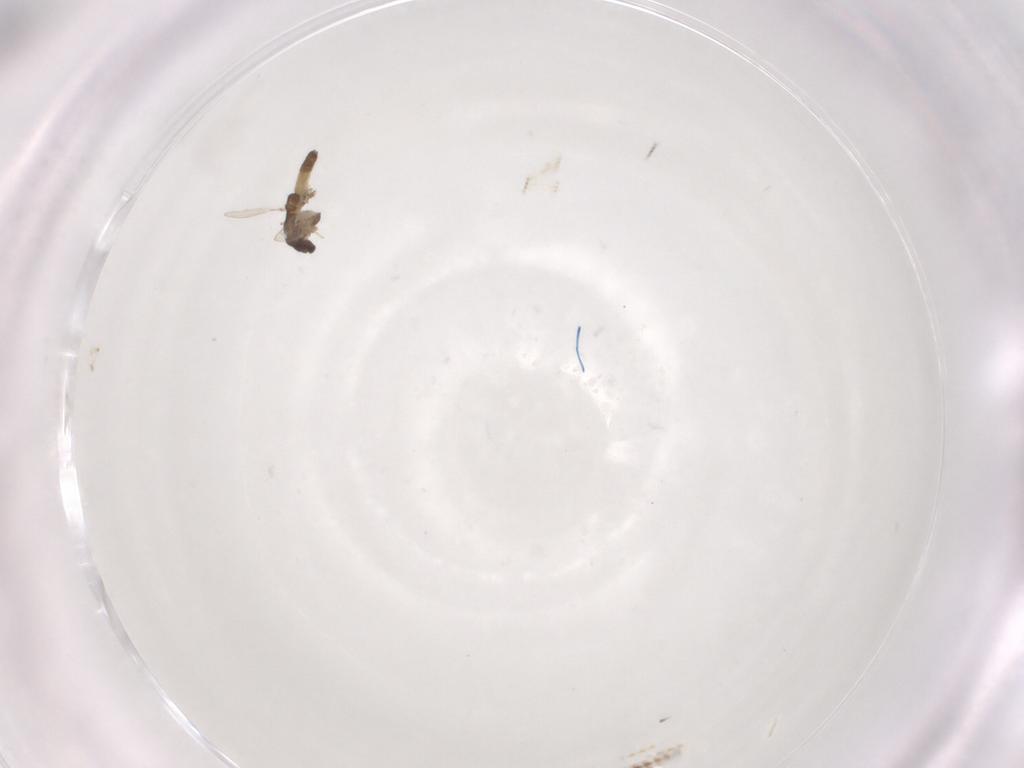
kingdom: Animalia
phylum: Arthropoda
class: Insecta
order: Diptera
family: Chironomidae
